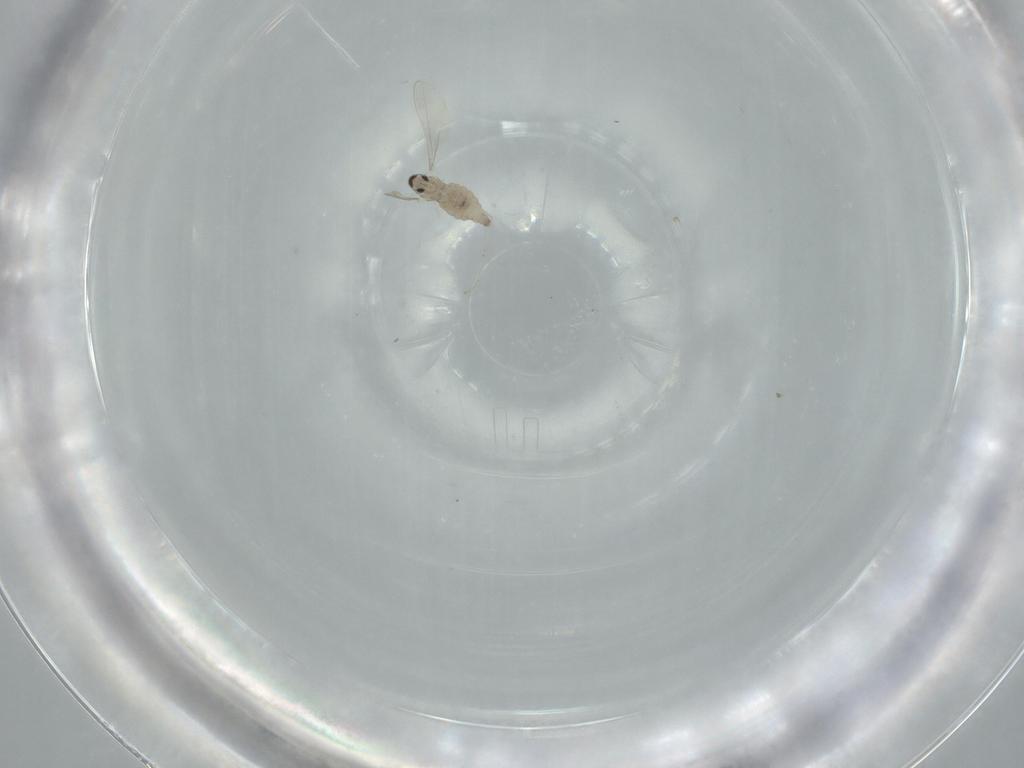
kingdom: Animalia
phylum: Arthropoda
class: Insecta
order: Diptera
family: Cecidomyiidae
